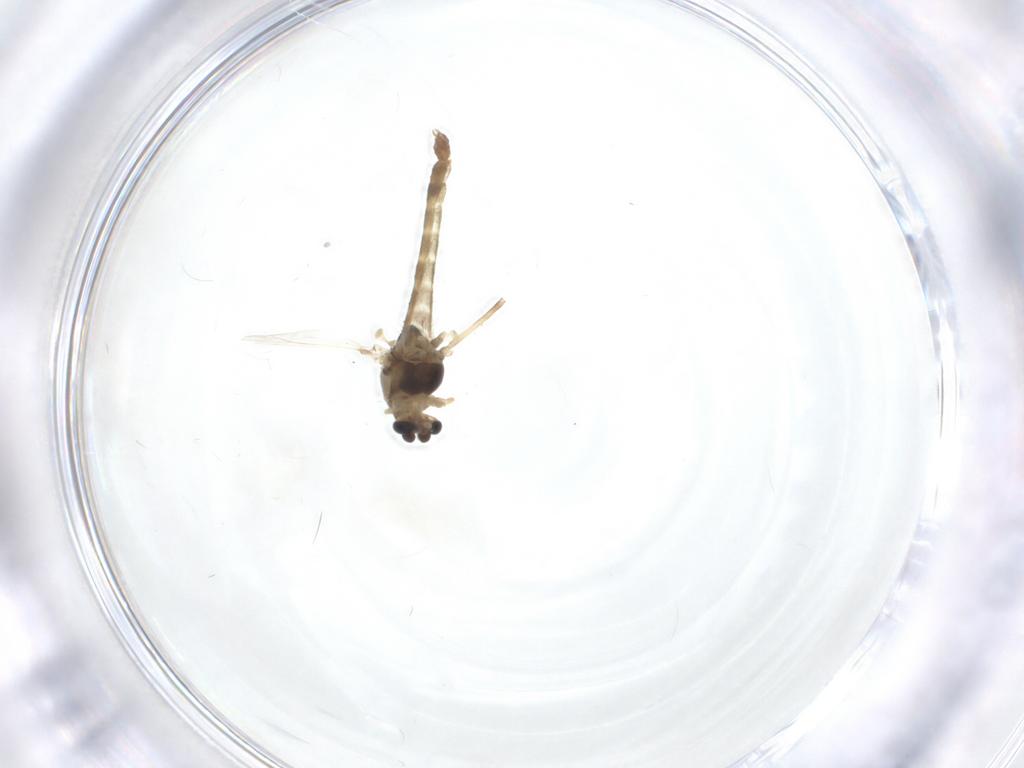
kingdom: Animalia
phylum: Arthropoda
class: Insecta
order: Diptera
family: Chironomidae
